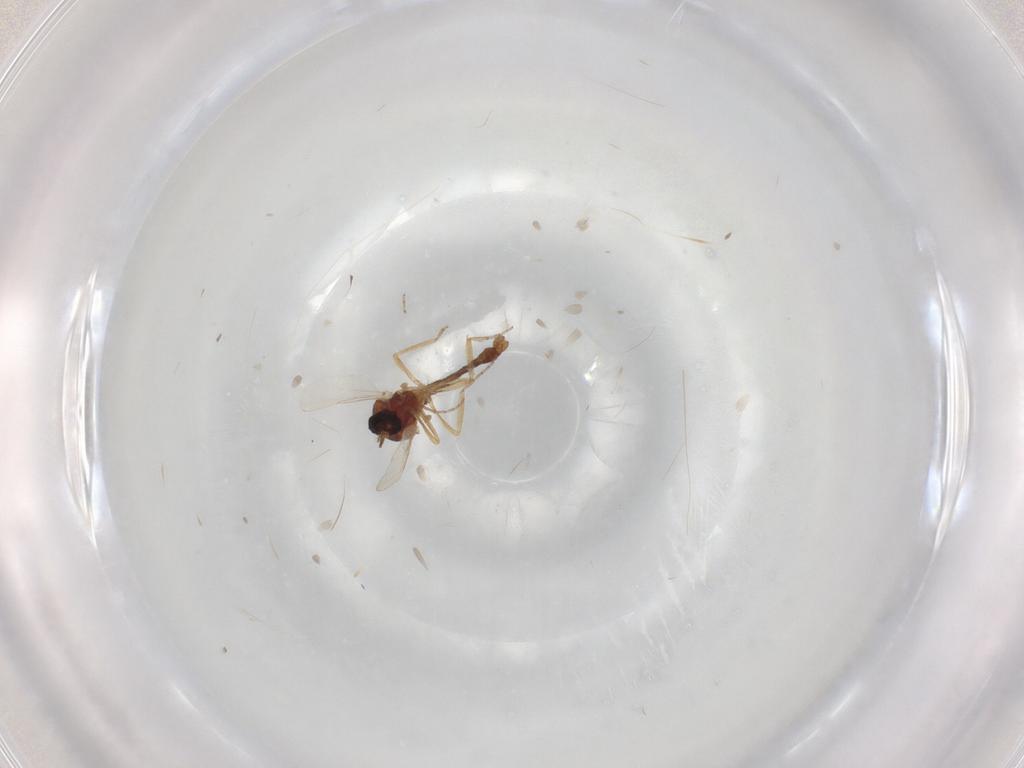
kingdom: Animalia
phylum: Arthropoda
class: Insecta
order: Diptera
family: Ceratopogonidae
